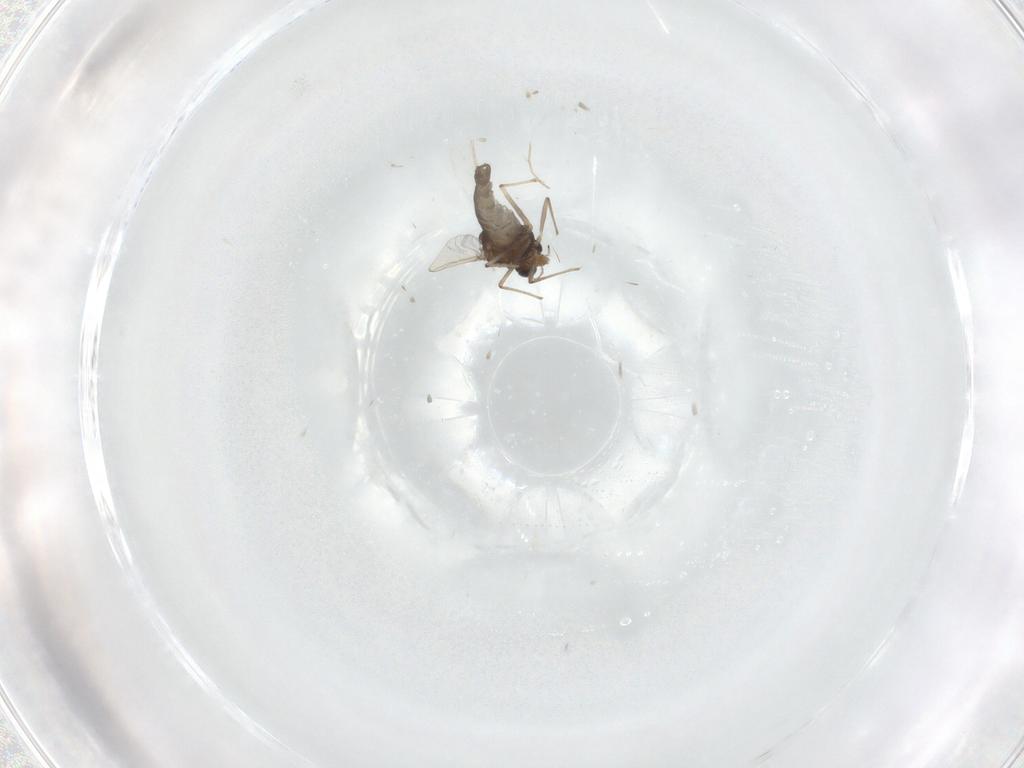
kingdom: Animalia
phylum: Arthropoda
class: Insecta
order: Diptera
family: Chironomidae
